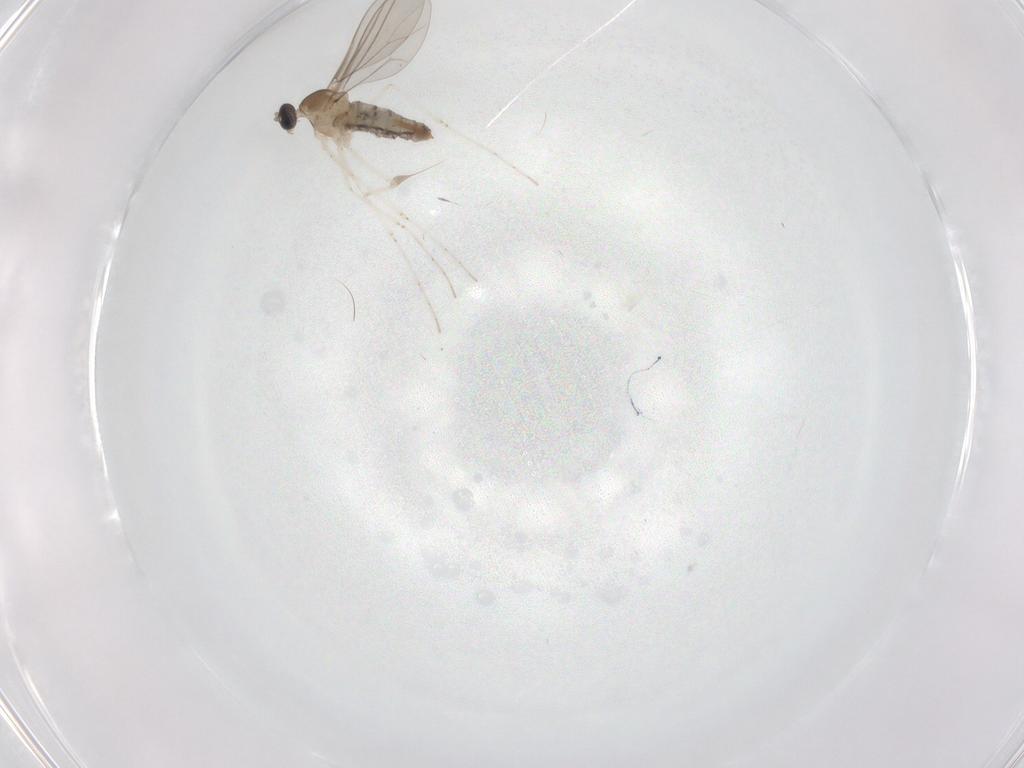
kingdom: Animalia
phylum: Arthropoda
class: Insecta
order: Diptera
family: Cecidomyiidae
